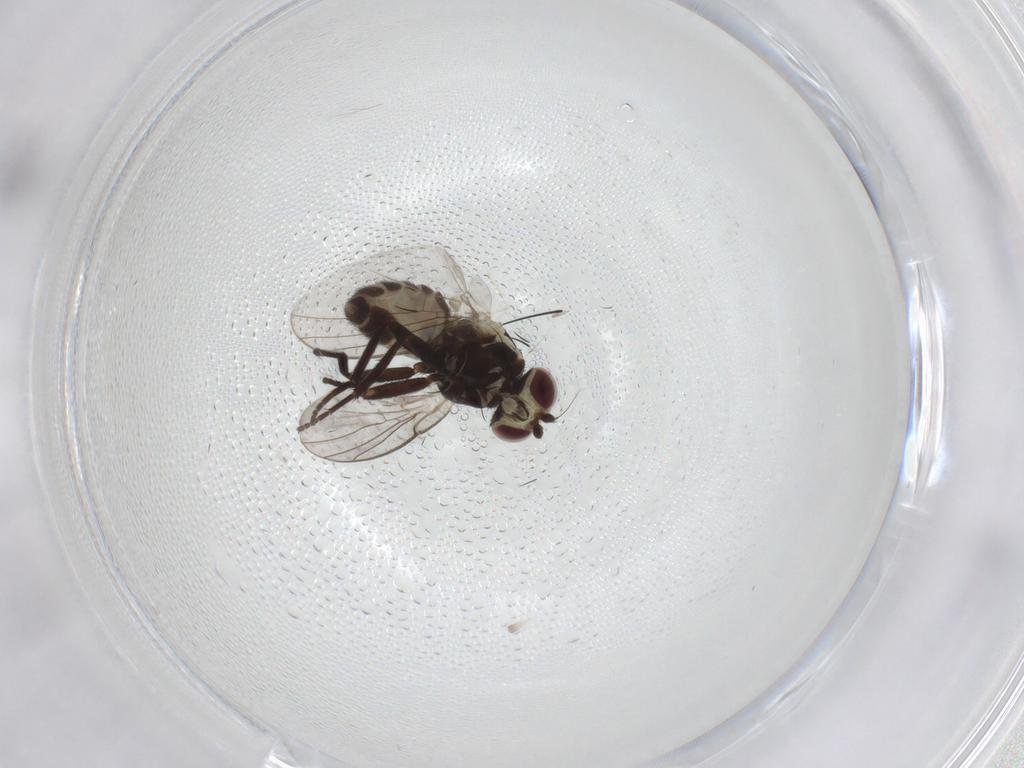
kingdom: Animalia
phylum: Arthropoda
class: Insecta
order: Diptera
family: Agromyzidae
